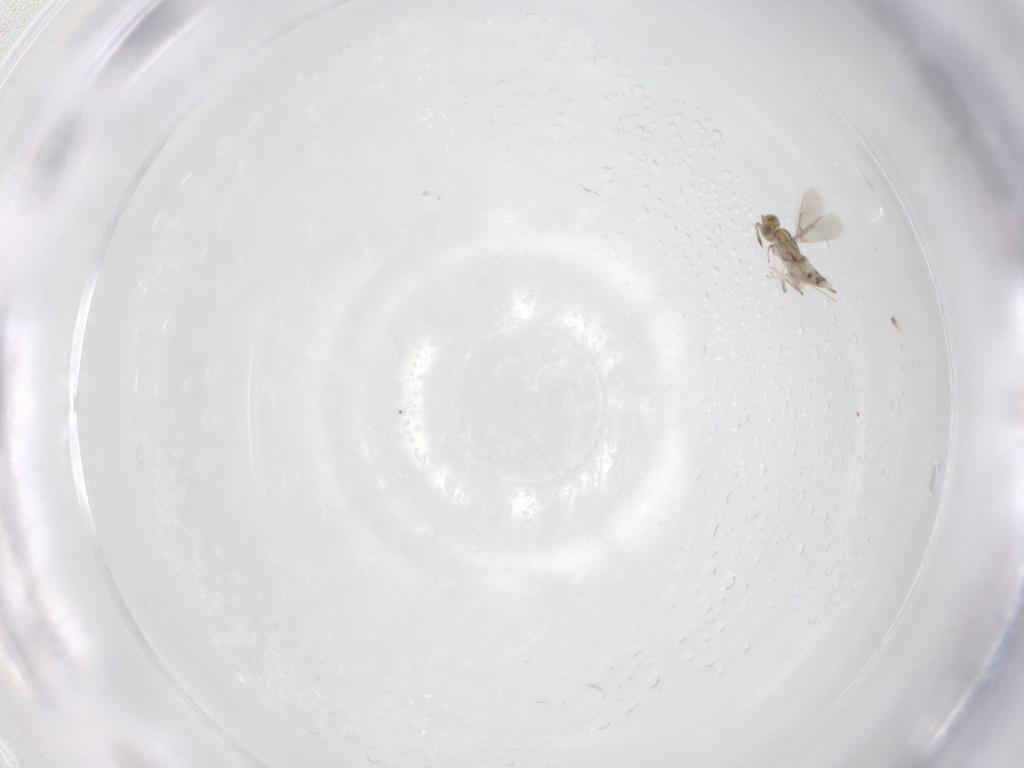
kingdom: Animalia
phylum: Arthropoda
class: Insecta
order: Hymenoptera
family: Aphelinidae
